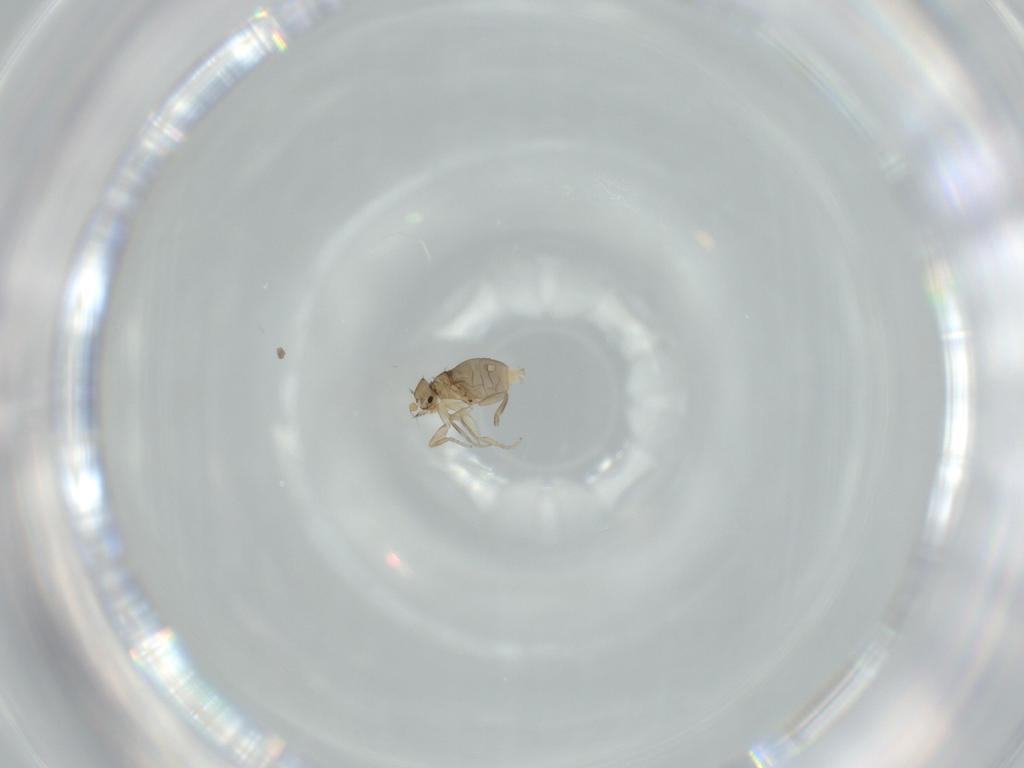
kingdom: Animalia
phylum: Arthropoda
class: Insecta
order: Diptera
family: Phoridae
